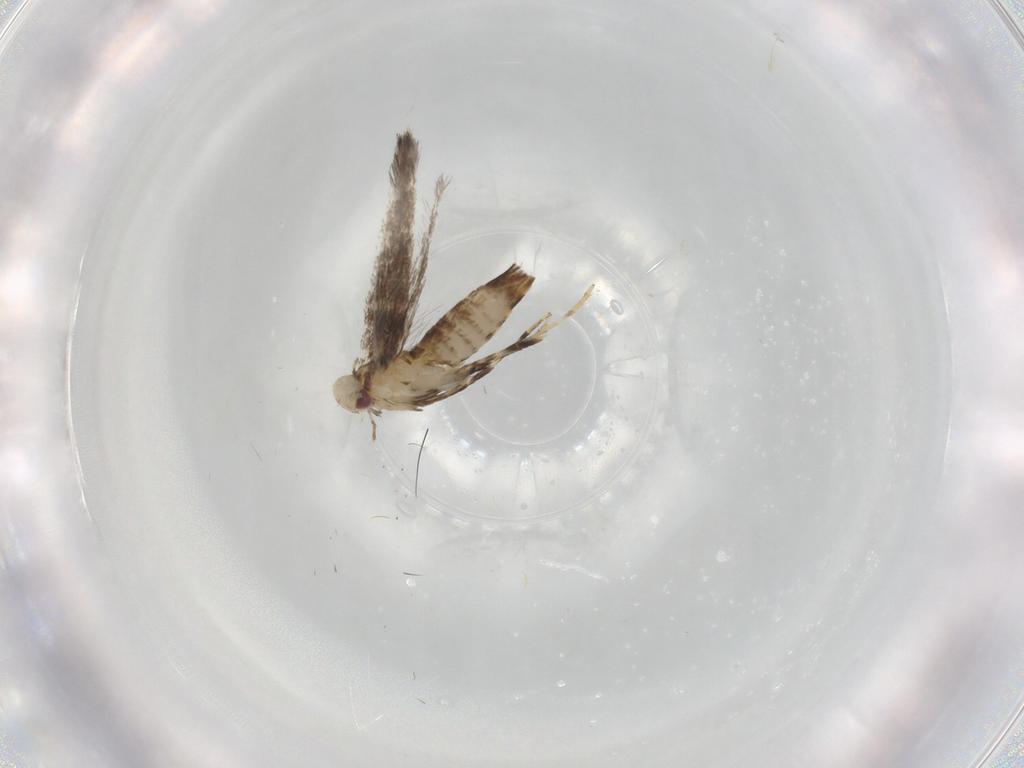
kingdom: Animalia
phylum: Arthropoda
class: Insecta
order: Lepidoptera
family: Gracillariidae
